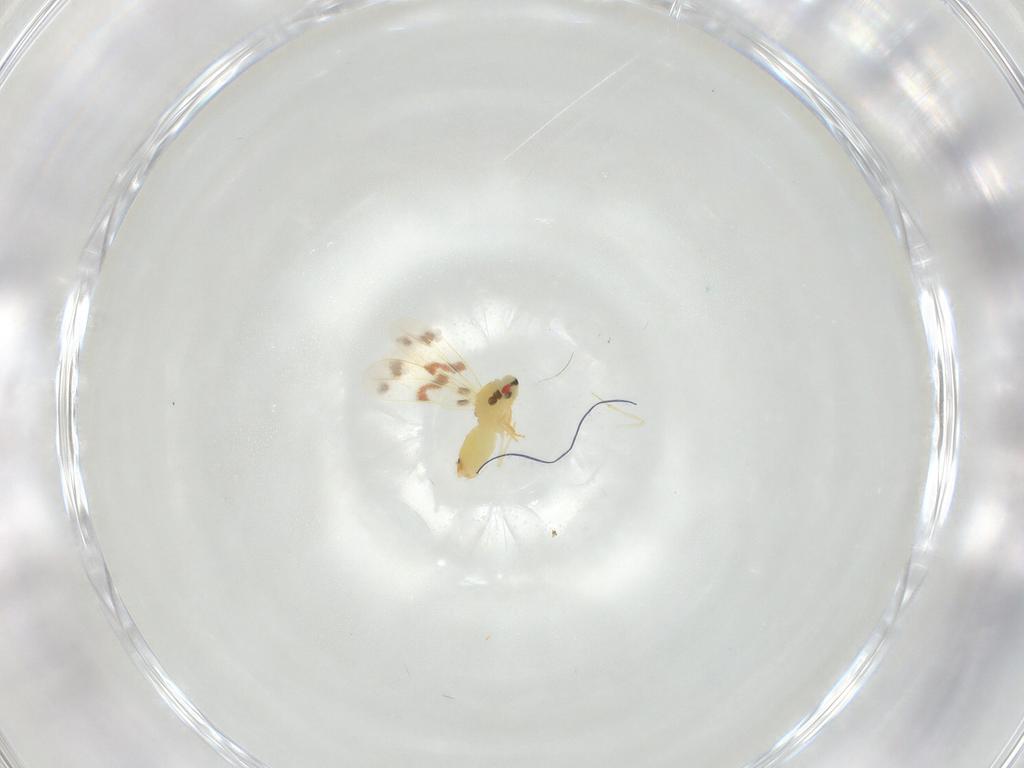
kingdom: Animalia
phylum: Arthropoda
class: Insecta
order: Hemiptera
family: Aleyrodidae
